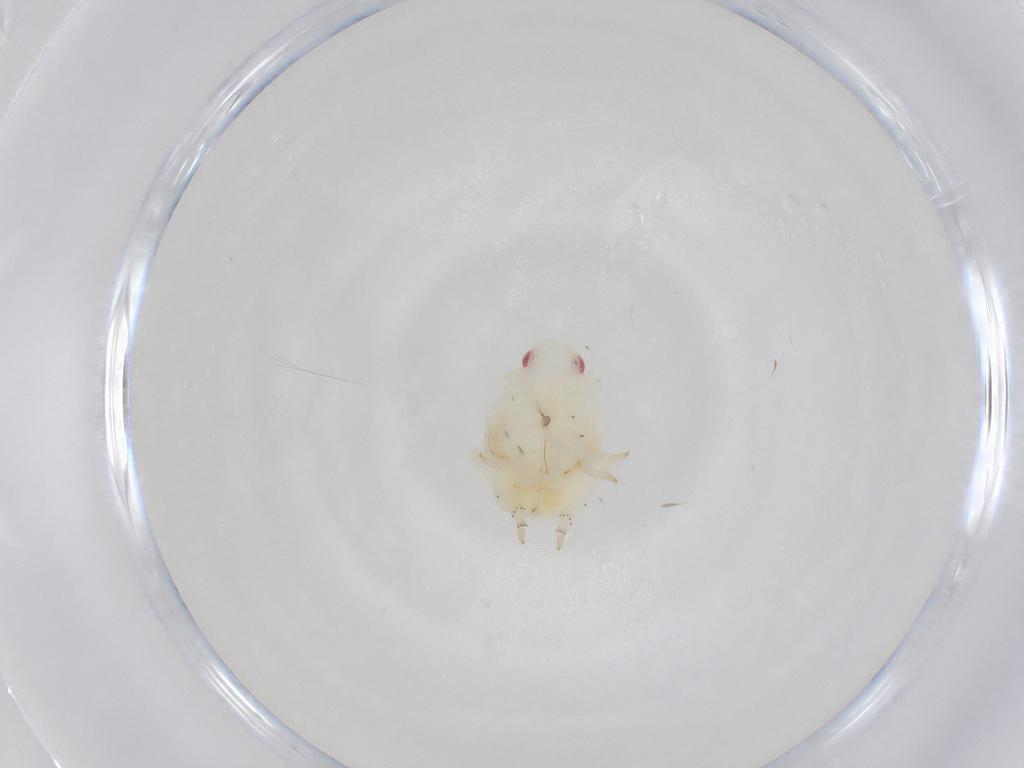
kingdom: Animalia
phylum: Arthropoda
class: Insecta
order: Hemiptera
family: Flatidae
